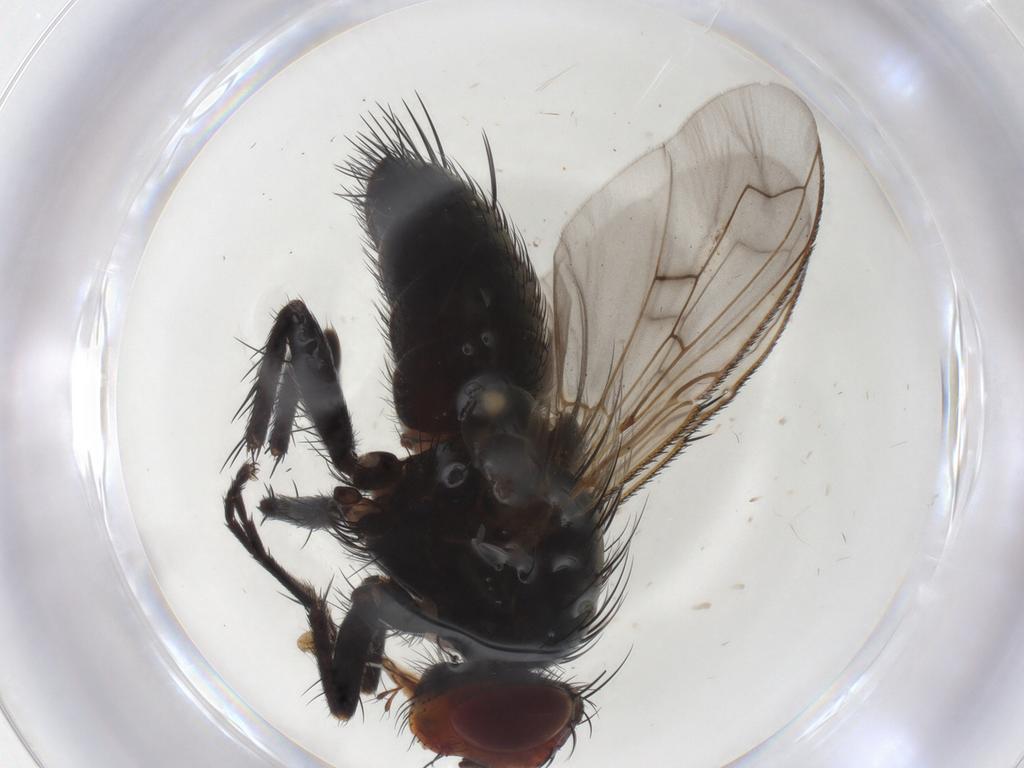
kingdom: Animalia
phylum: Arthropoda
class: Insecta
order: Diptera
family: Tachinidae
